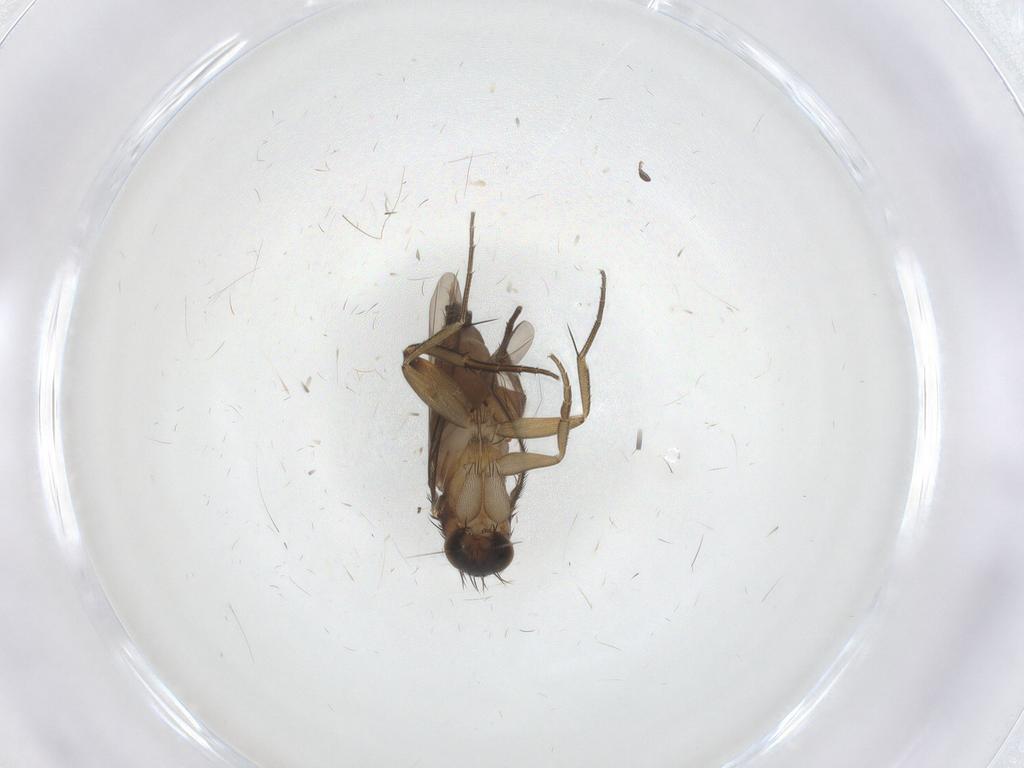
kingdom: Animalia
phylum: Arthropoda
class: Insecta
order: Diptera
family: Phoridae
